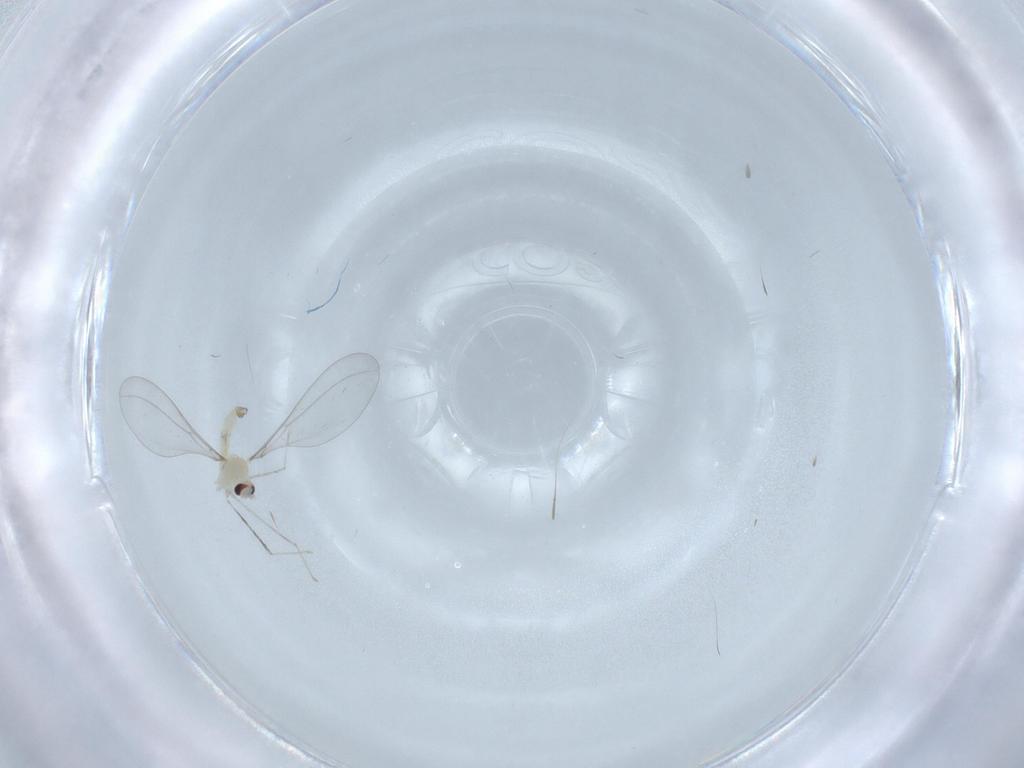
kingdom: Animalia
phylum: Arthropoda
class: Insecta
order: Diptera
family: Cecidomyiidae
